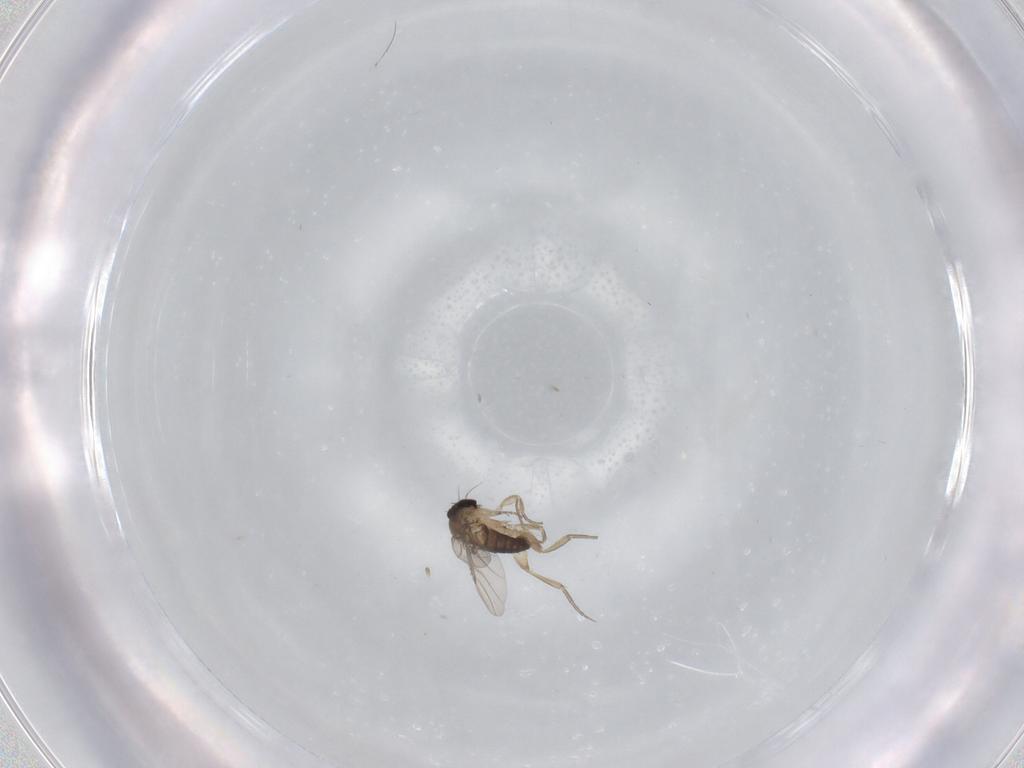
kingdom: Animalia
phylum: Arthropoda
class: Insecta
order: Diptera
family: Phoridae
